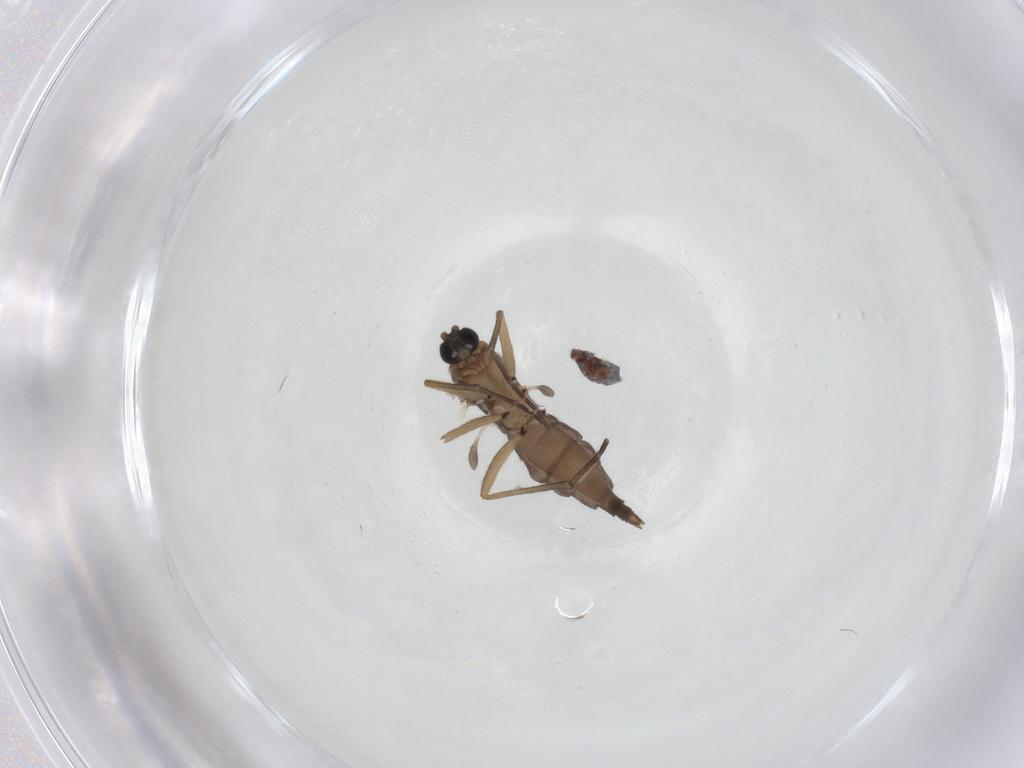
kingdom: Animalia
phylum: Arthropoda
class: Insecta
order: Diptera
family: Sciaridae
